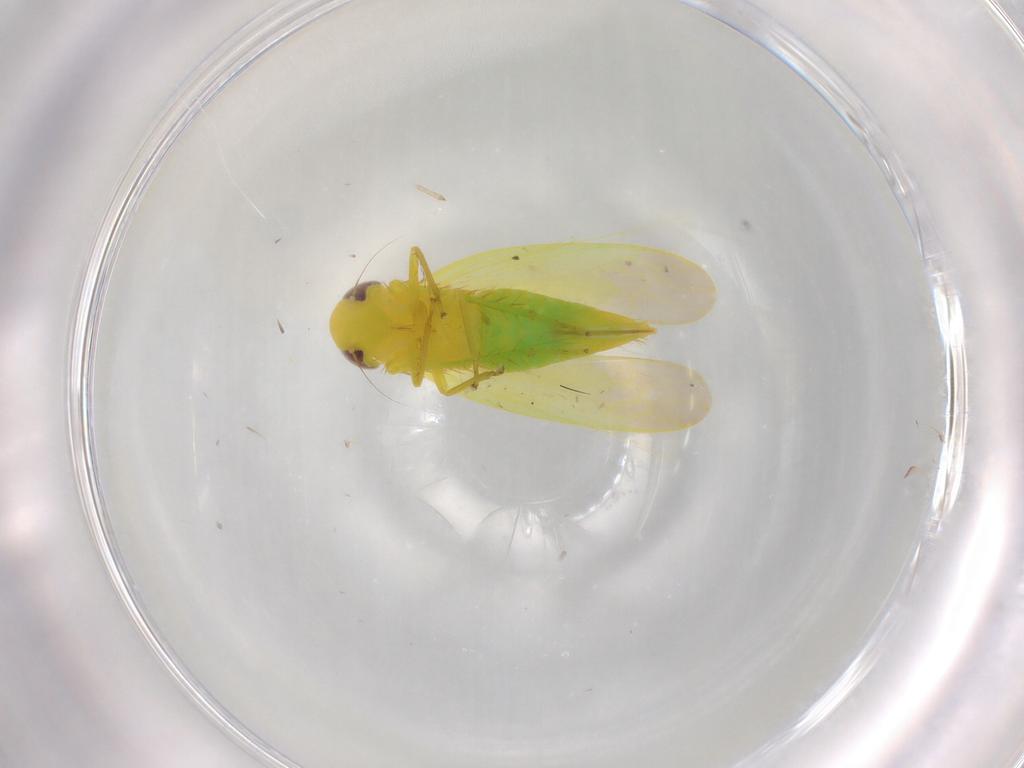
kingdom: Animalia
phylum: Arthropoda
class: Insecta
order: Hemiptera
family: Cicadellidae
